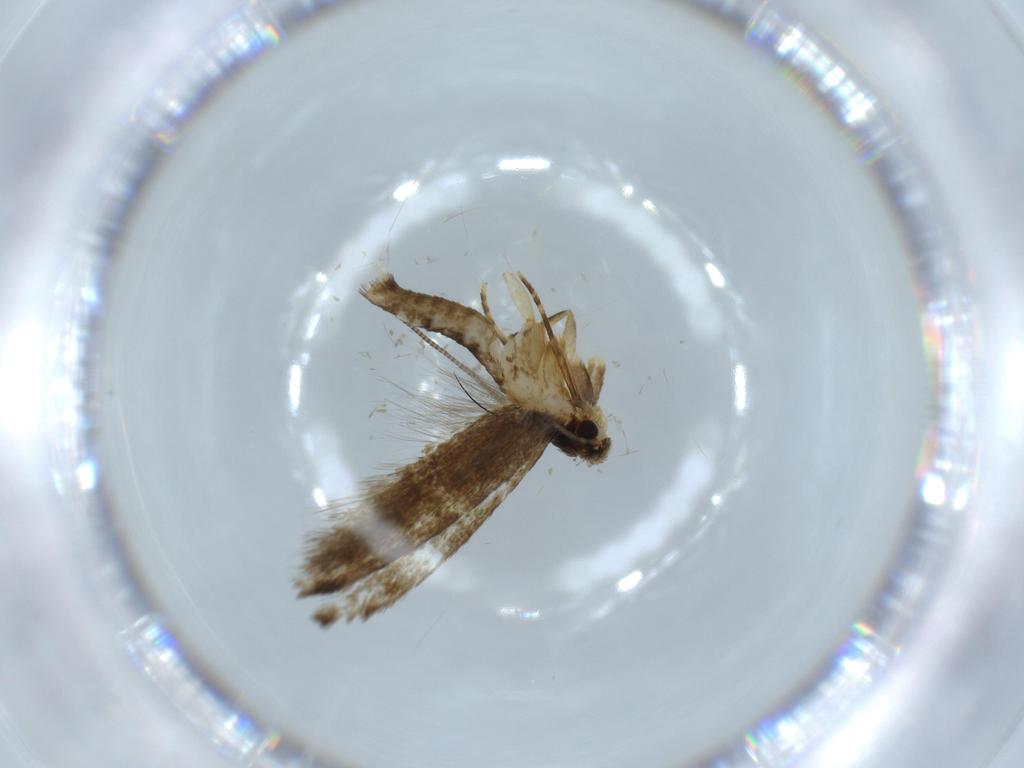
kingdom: Animalia
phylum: Arthropoda
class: Insecta
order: Lepidoptera
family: Tineidae
